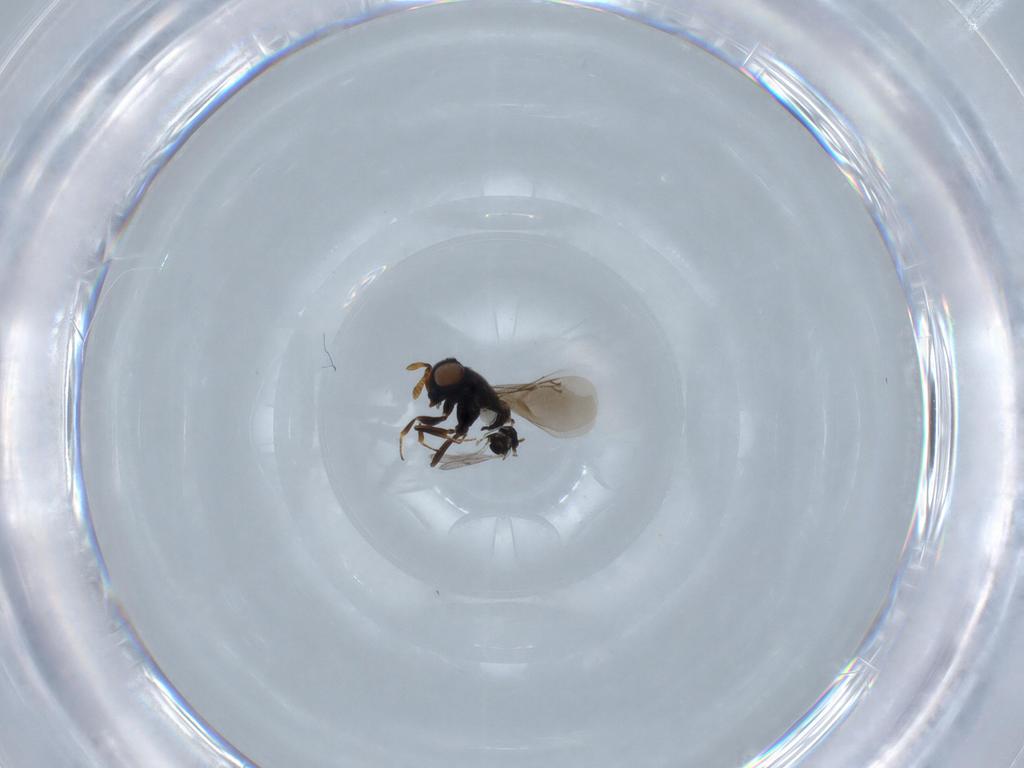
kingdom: Animalia
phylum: Arthropoda
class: Insecta
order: Hymenoptera
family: Eunotidae
